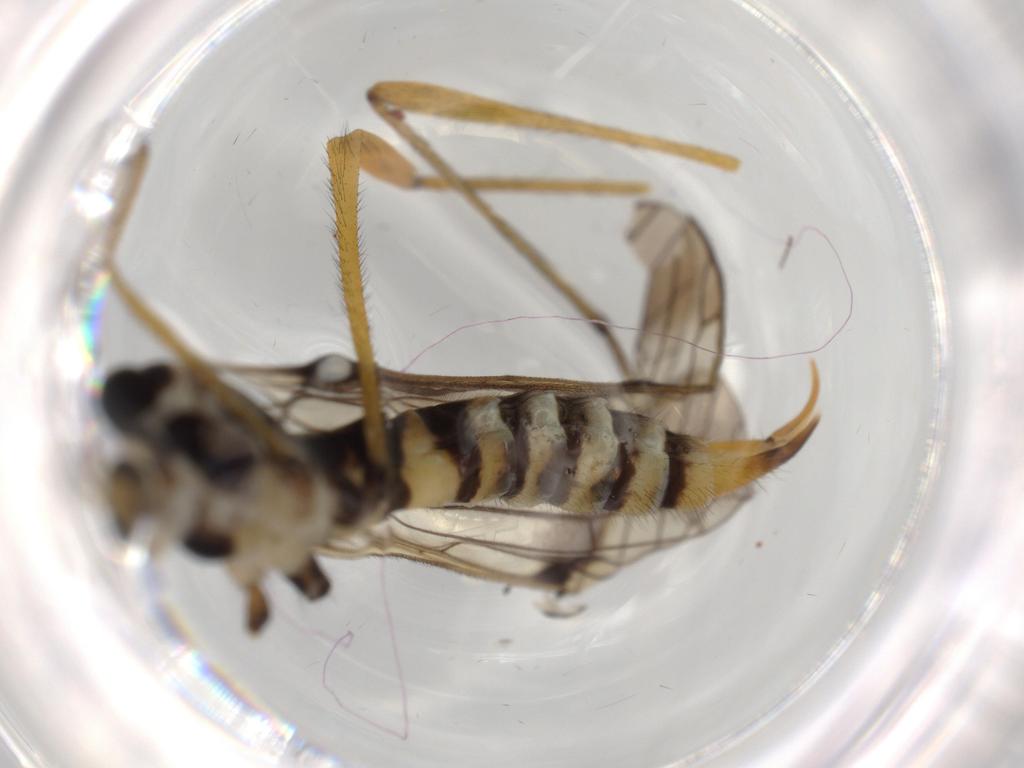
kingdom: Animalia
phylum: Arthropoda
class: Insecta
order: Diptera
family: Limoniidae
